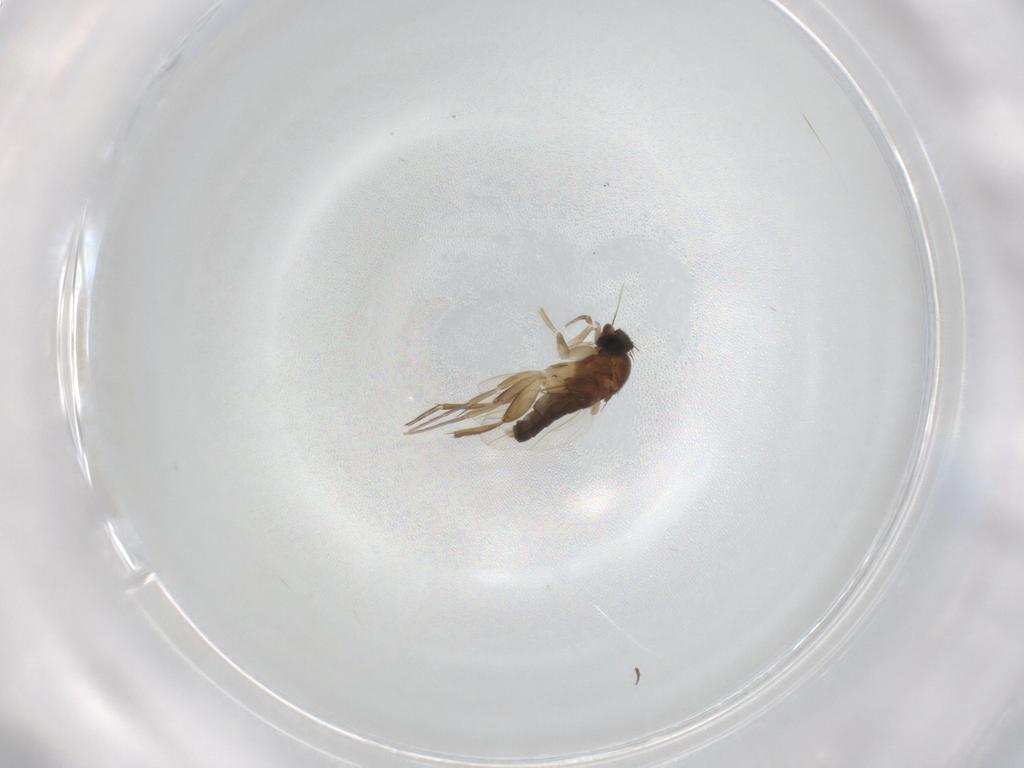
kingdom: Animalia
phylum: Arthropoda
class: Insecta
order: Diptera
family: Phoridae
